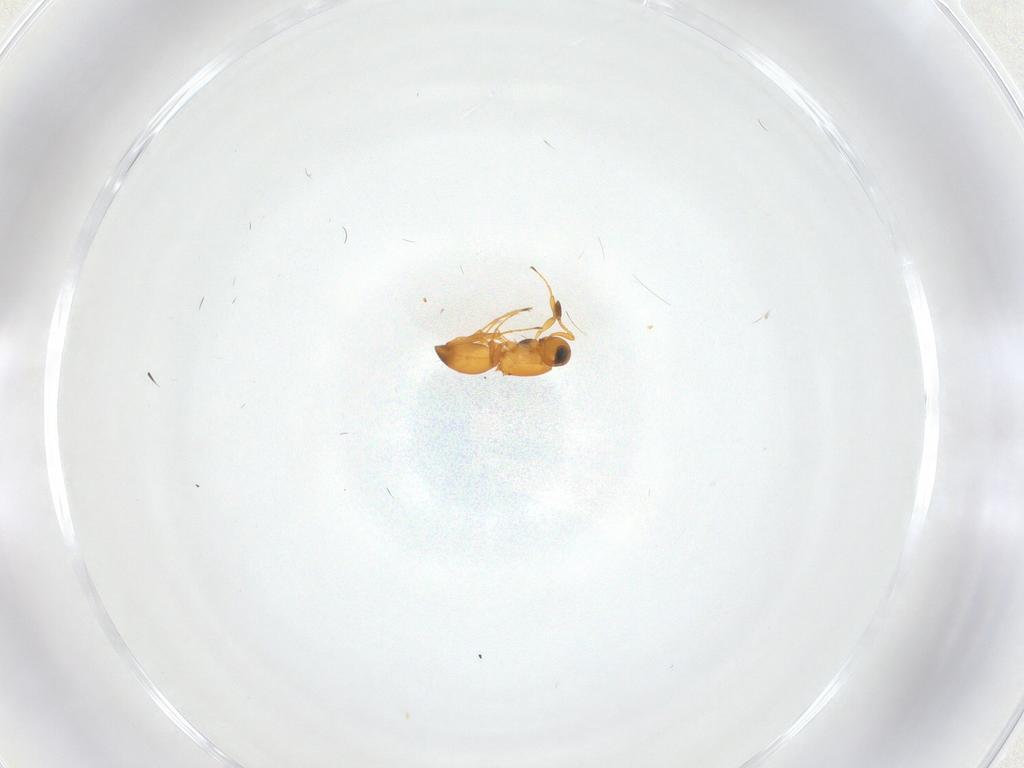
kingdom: Animalia
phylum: Arthropoda
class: Insecta
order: Hymenoptera
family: Platygastridae
